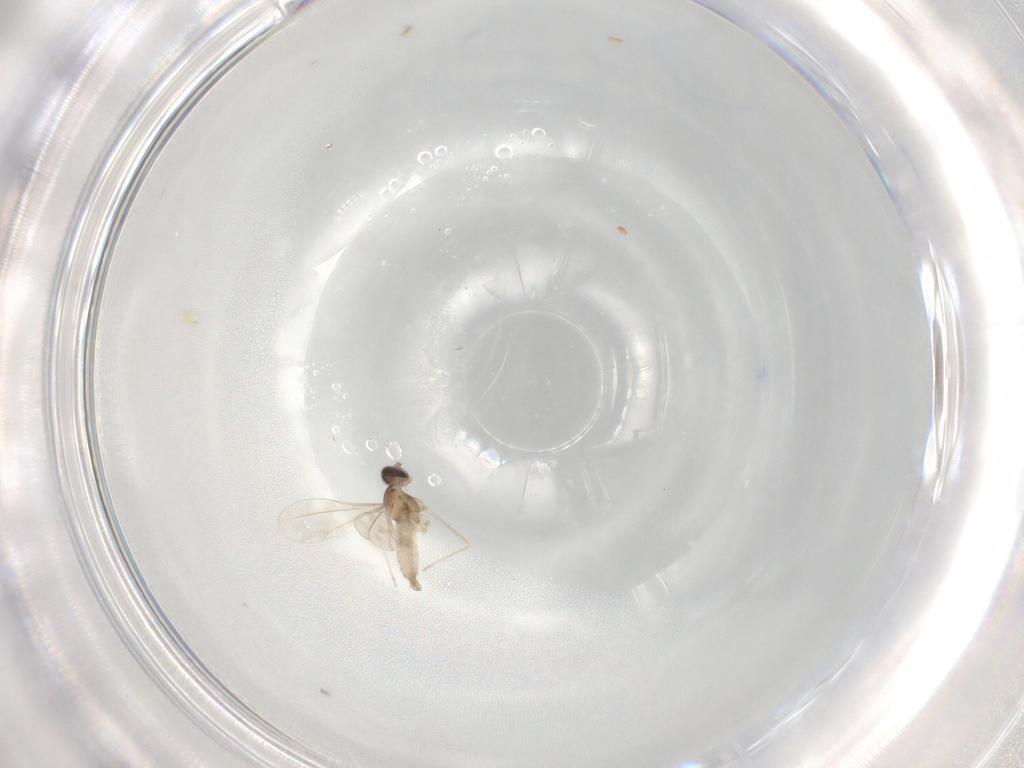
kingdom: Animalia
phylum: Arthropoda
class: Insecta
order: Diptera
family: Cecidomyiidae
